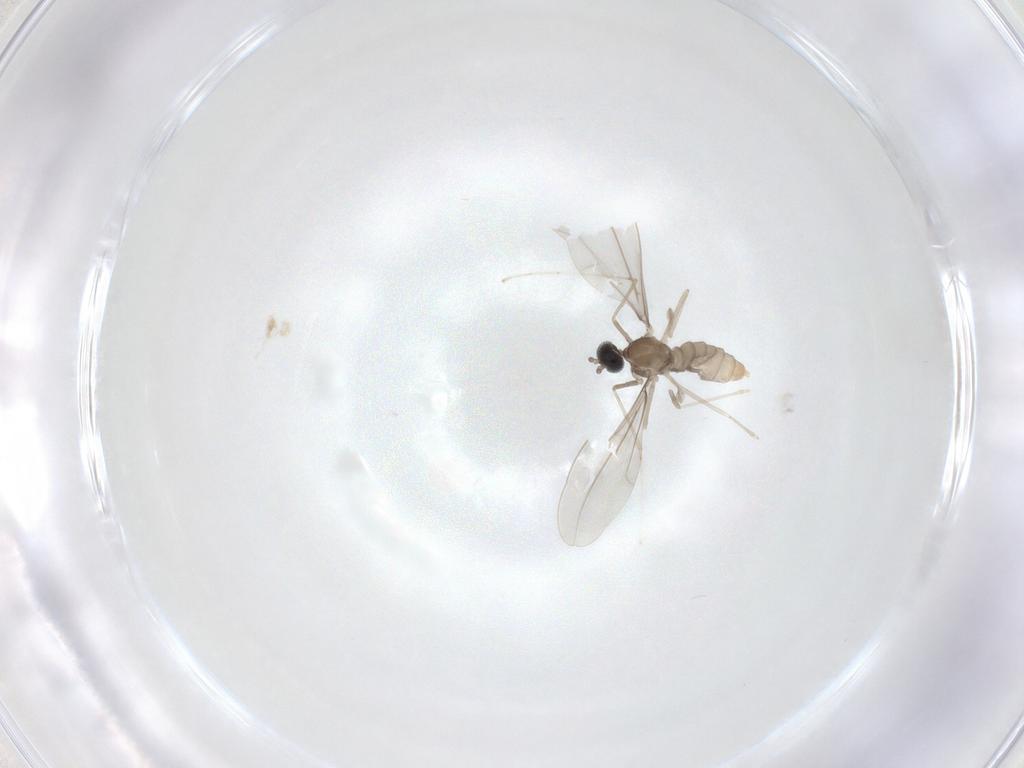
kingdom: Animalia
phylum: Arthropoda
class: Insecta
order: Diptera
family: Cecidomyiidae
